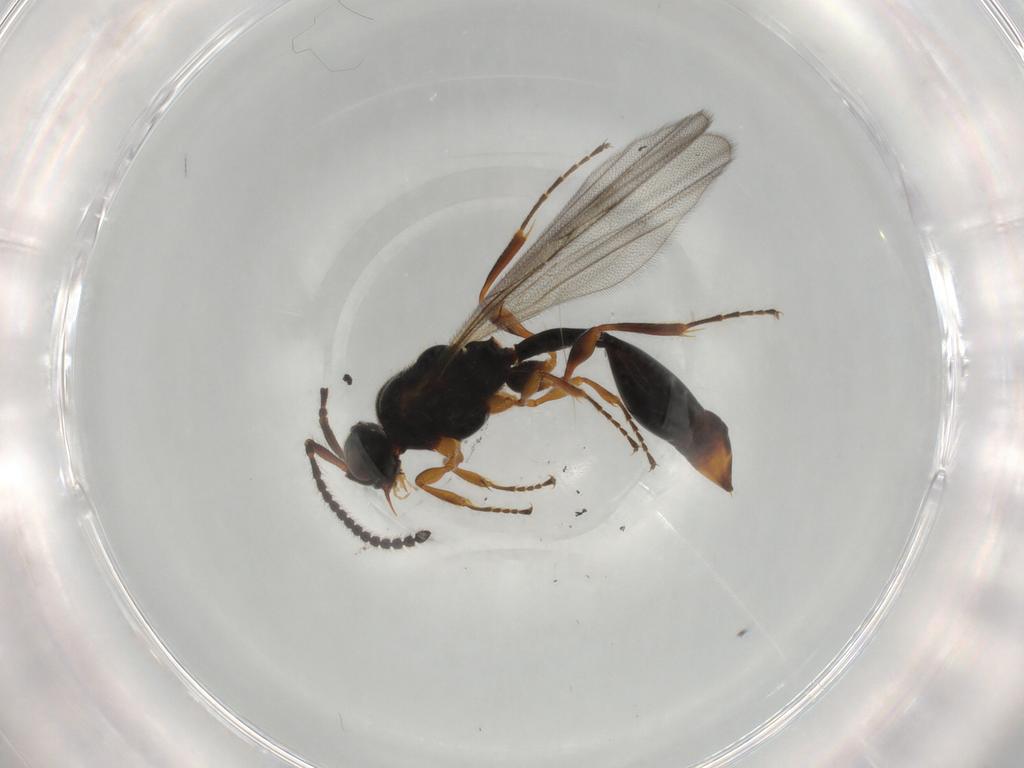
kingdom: Animalia
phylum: Arthropoda
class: Insecta
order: Hymenoptera
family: Diapriidae
